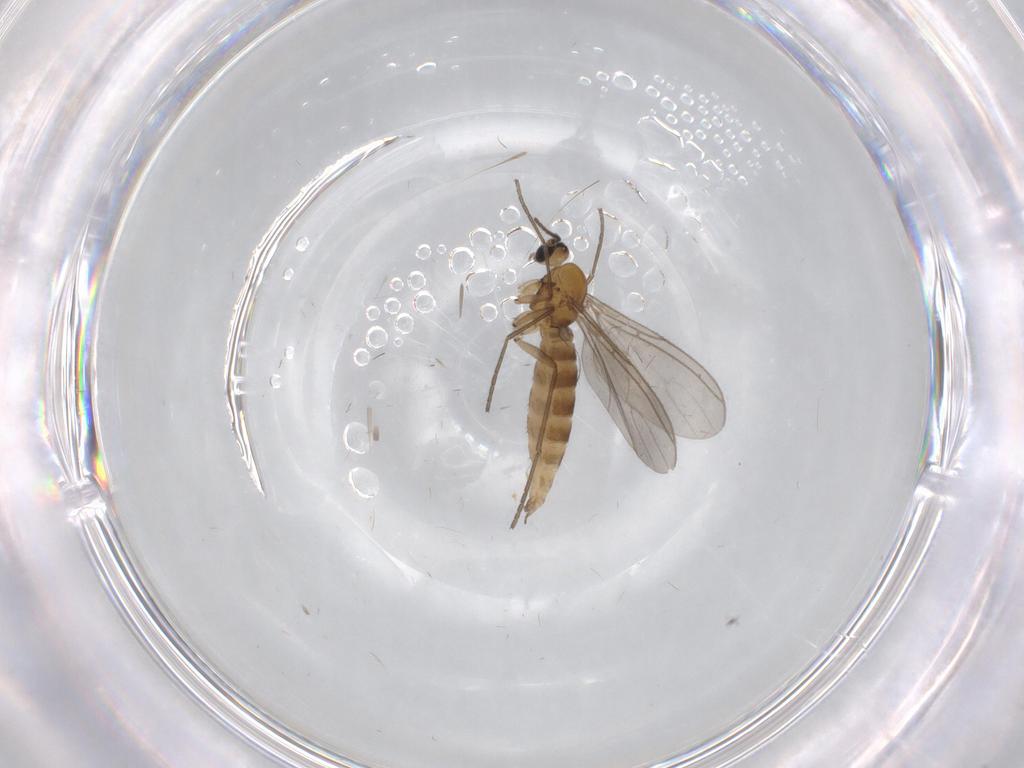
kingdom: Animalia
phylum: Arthropoda
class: Insecta
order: Diptera
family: Sciaridae
